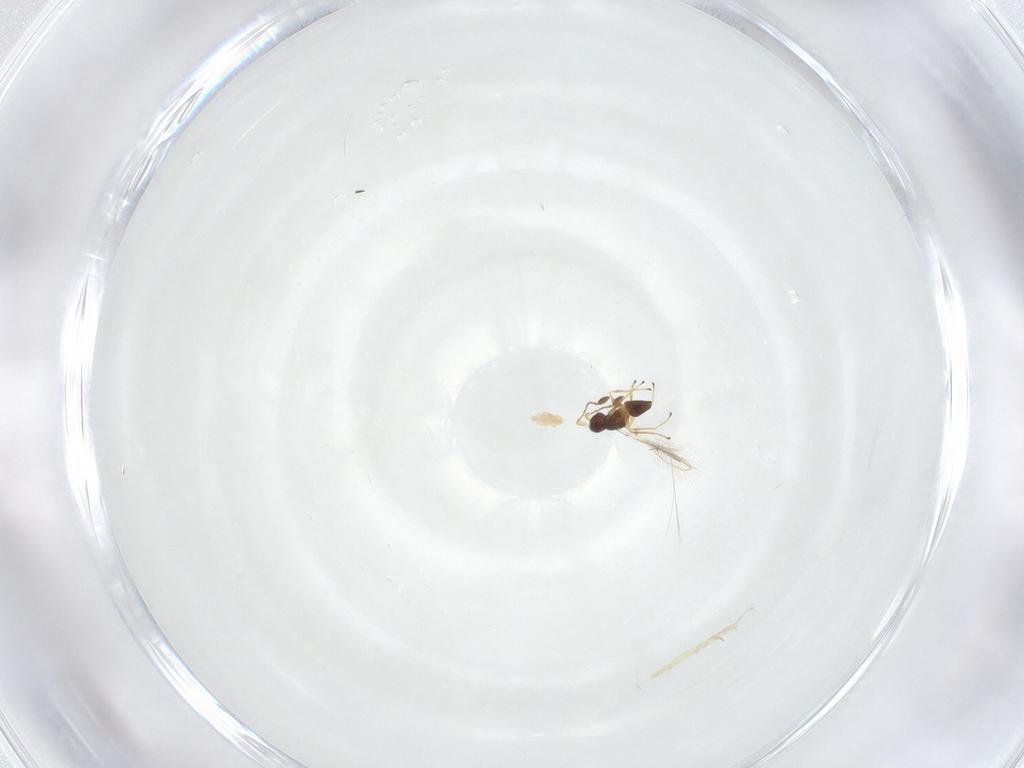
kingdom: Animalia
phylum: Arthropoda
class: Insecta
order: Hymenoptera
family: Mymaridae
